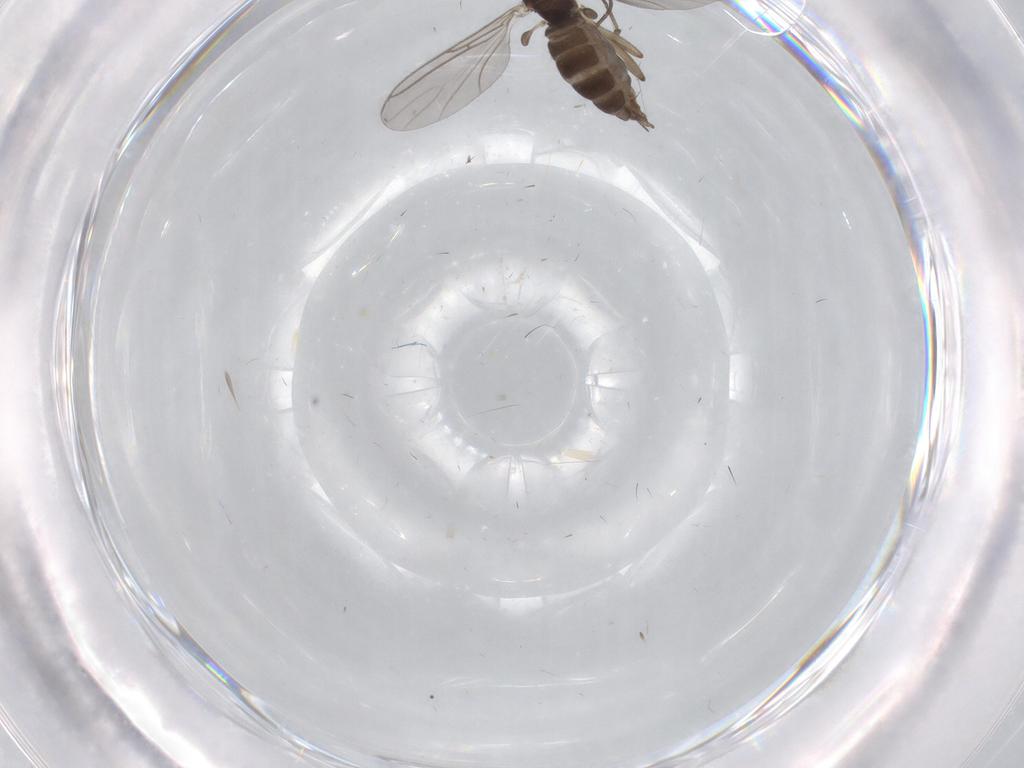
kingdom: Animalia
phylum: Arthropoda
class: Insecta
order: Diptera
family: Sciaridae
